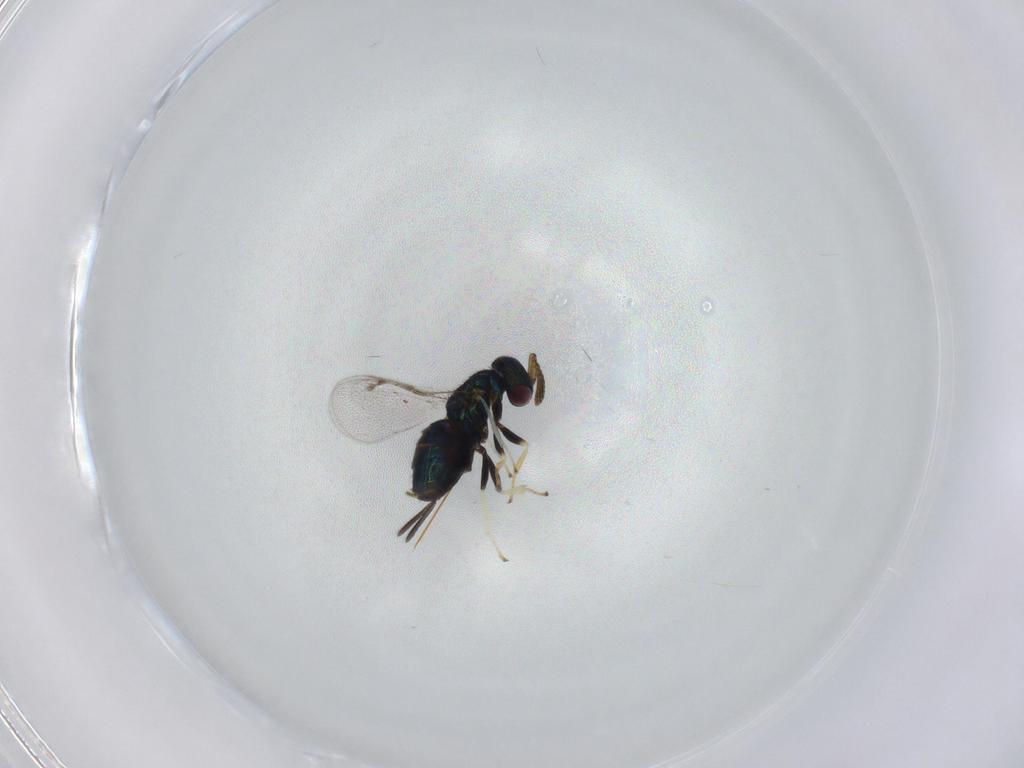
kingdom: Animalia
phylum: Arthropoda
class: Insecta
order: Hymenoptera
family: Pirenidae
